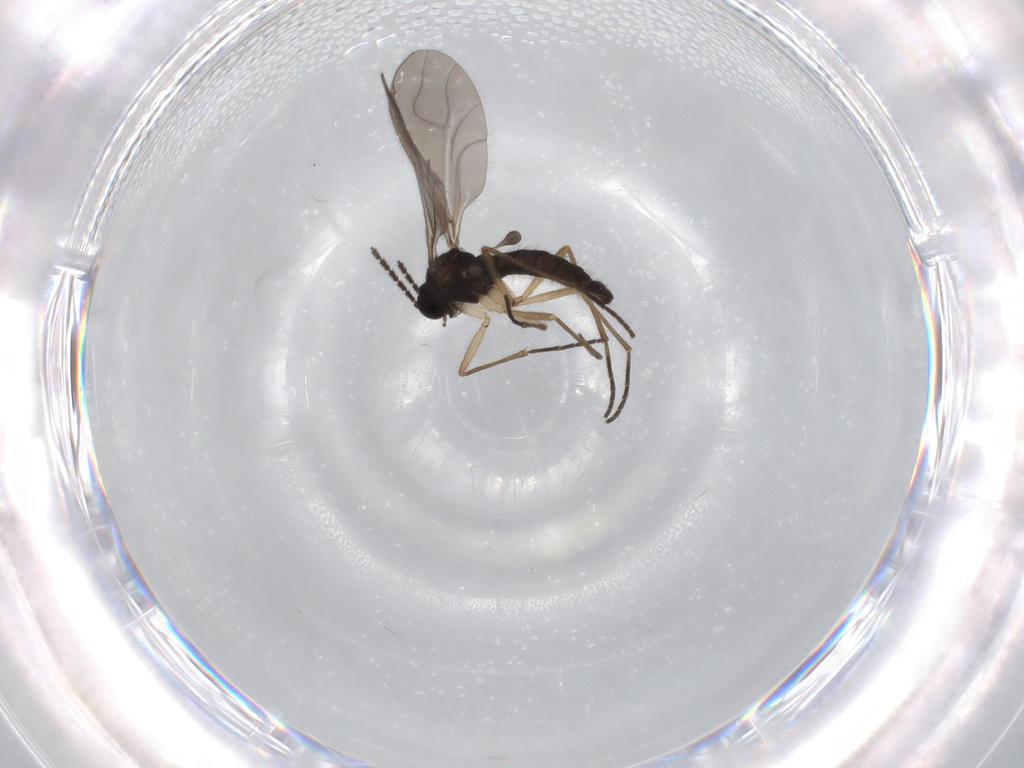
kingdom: Animalia
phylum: Arthropoda
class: Insecta
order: Diptera
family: Sciaridae
